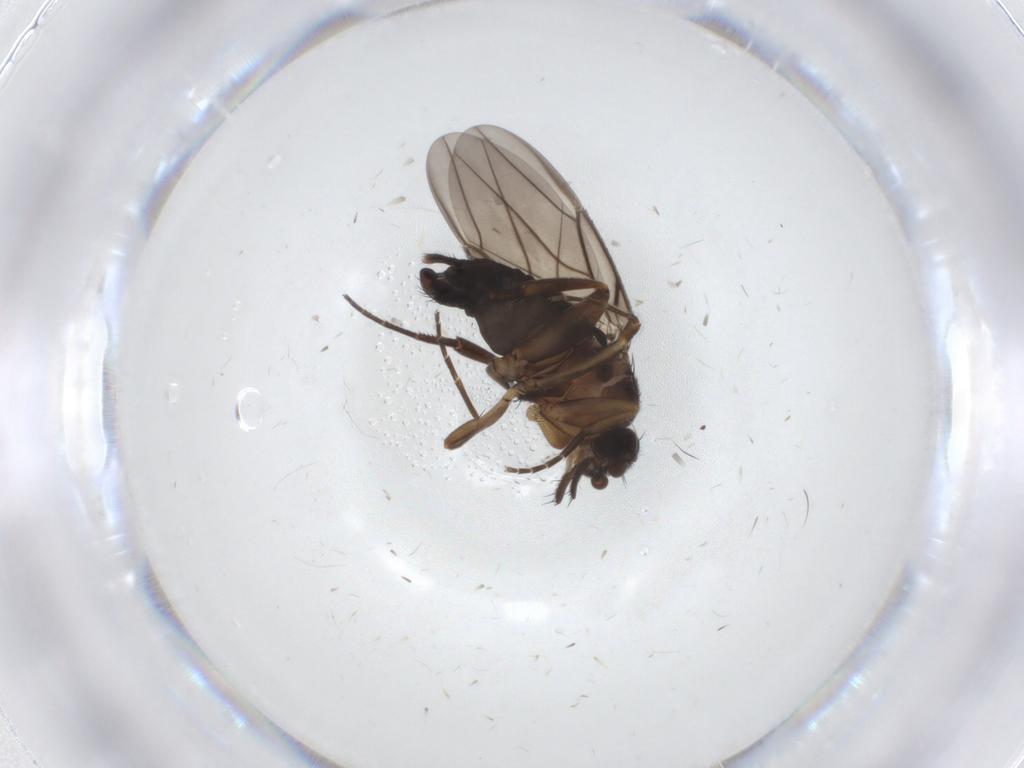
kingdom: Animalia
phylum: Arthropoda
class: Insecta
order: Diptera
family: Phoridae
